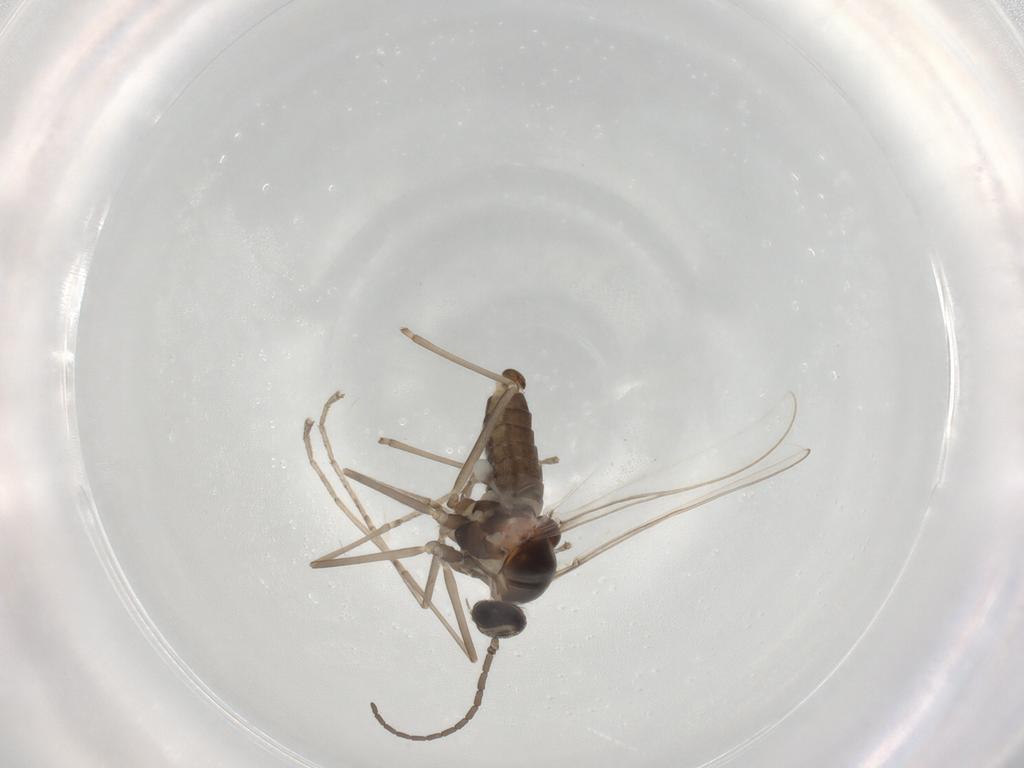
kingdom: Animalia
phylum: Arthropoda
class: Insecta
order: Diptera
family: Cecidomyiidae
